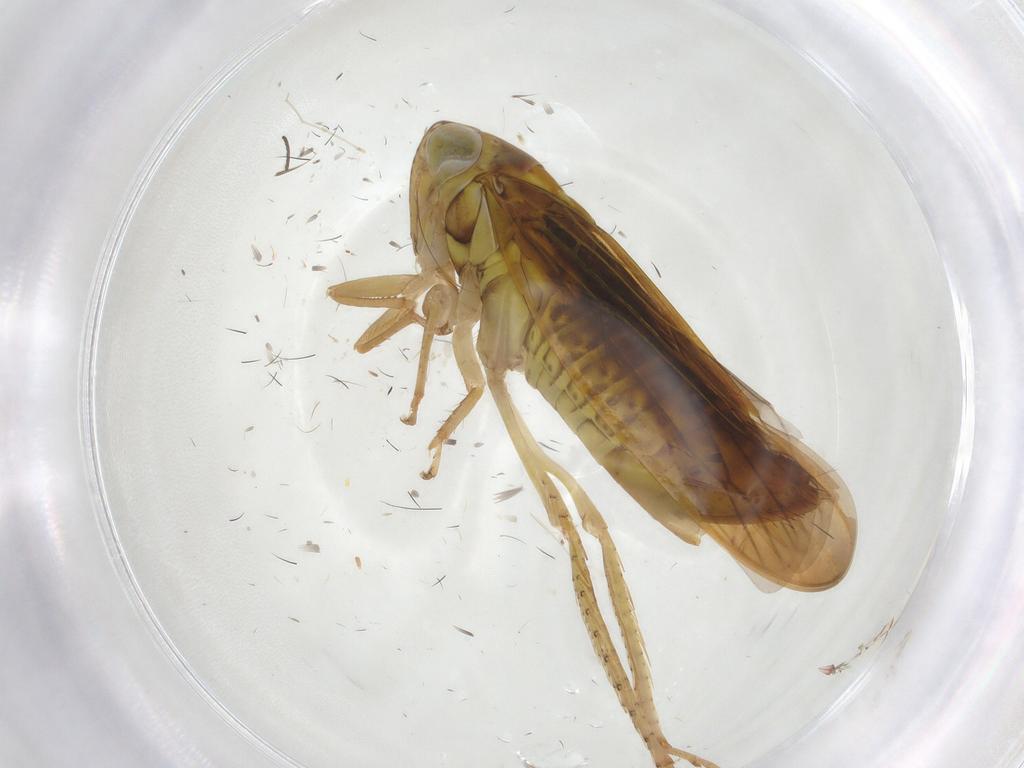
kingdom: Animalia
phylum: Arthropoda
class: Insecta
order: Hemiptera
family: Cicadellidae
